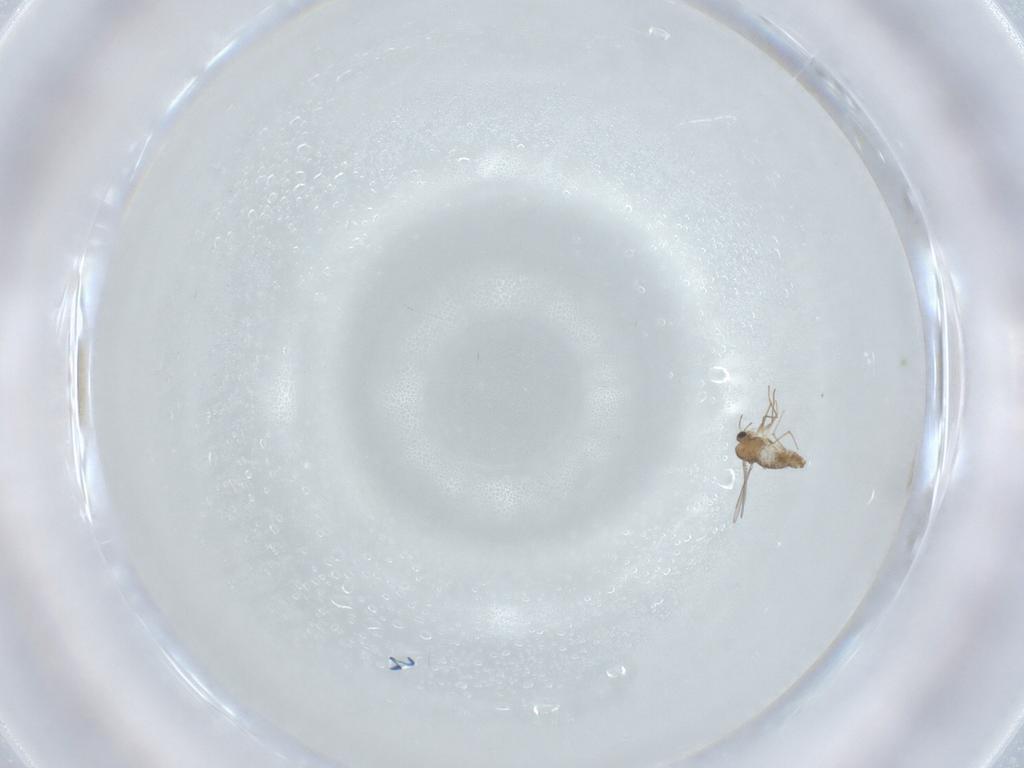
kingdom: Animalia
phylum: Arthropoda
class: Insecta
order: Diptera
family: Chironomidae
